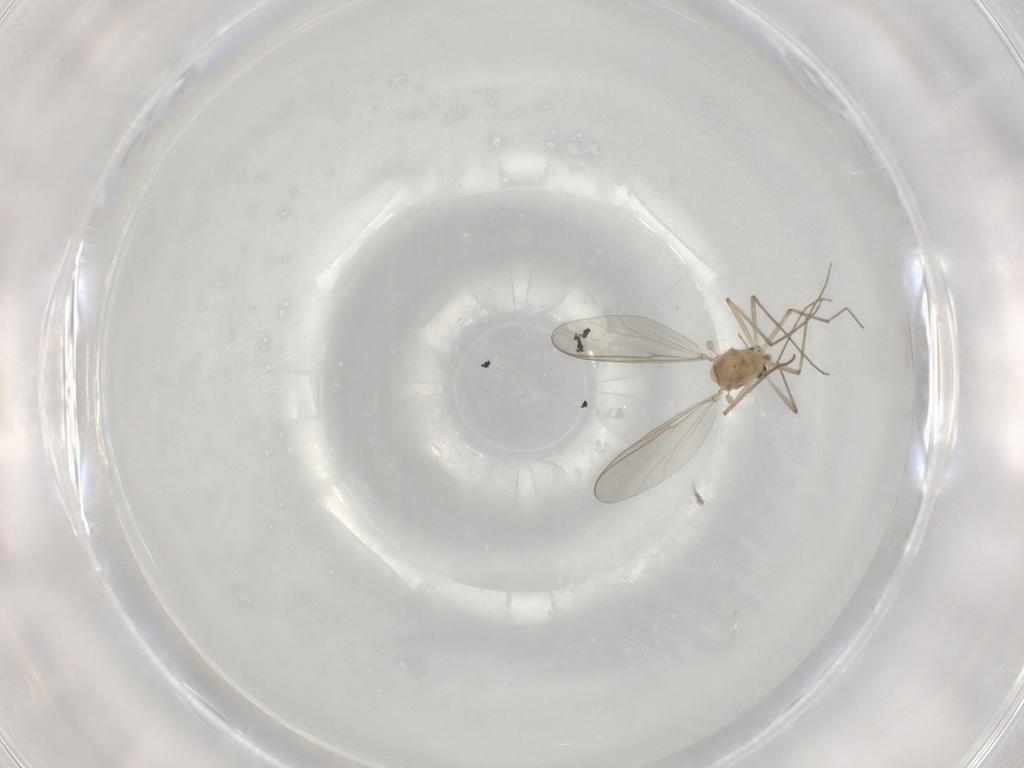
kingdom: Animalia
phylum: Arthropoda
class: Insecta
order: Diptera
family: Chironomidae
